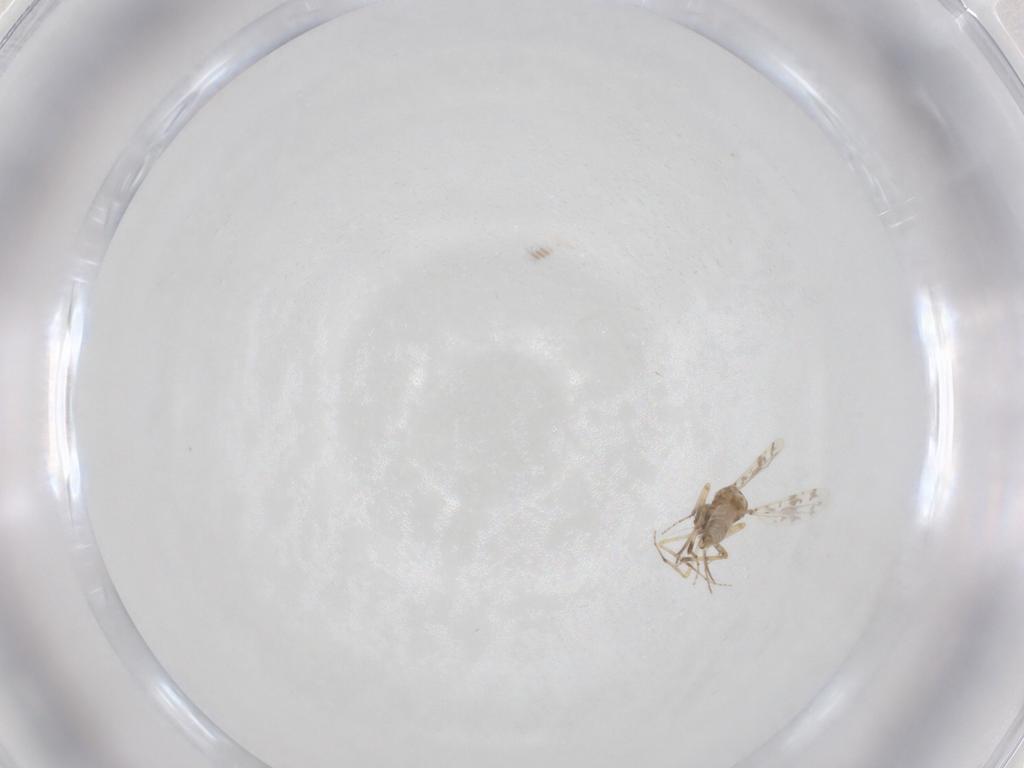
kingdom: Animalia
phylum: Arthropoda
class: Insecta
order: Diptera
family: Ceratopogonidae
